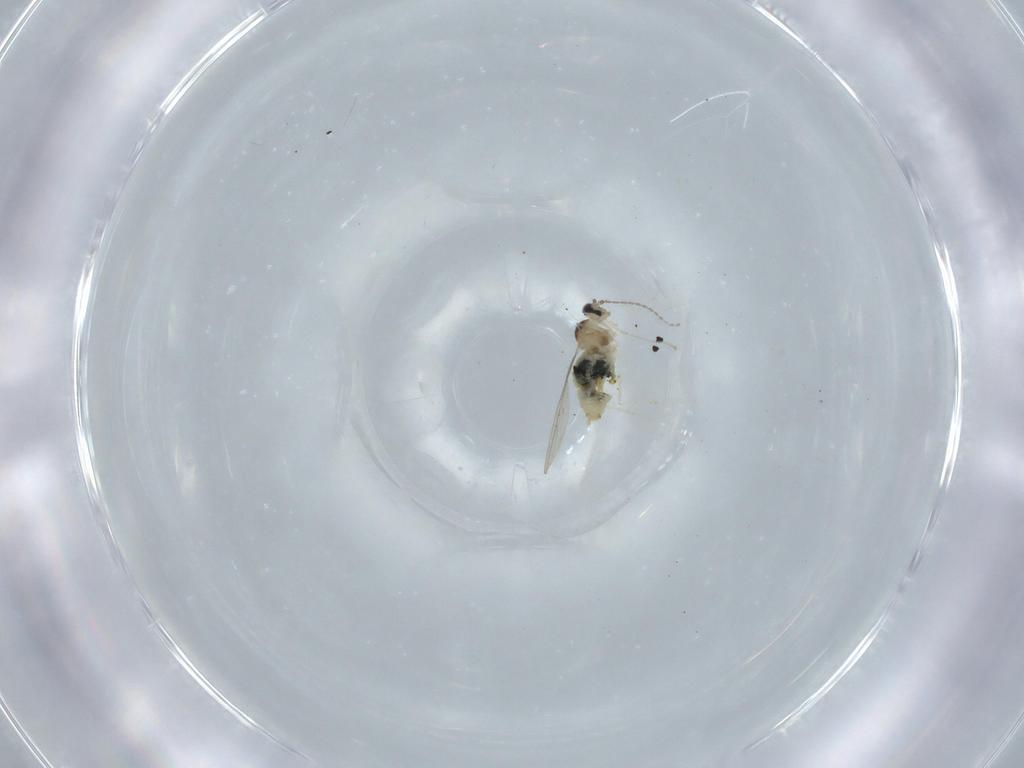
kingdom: Animalia
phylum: Arthropoda
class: Insecta
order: Diptera
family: Cecidomyiidae
